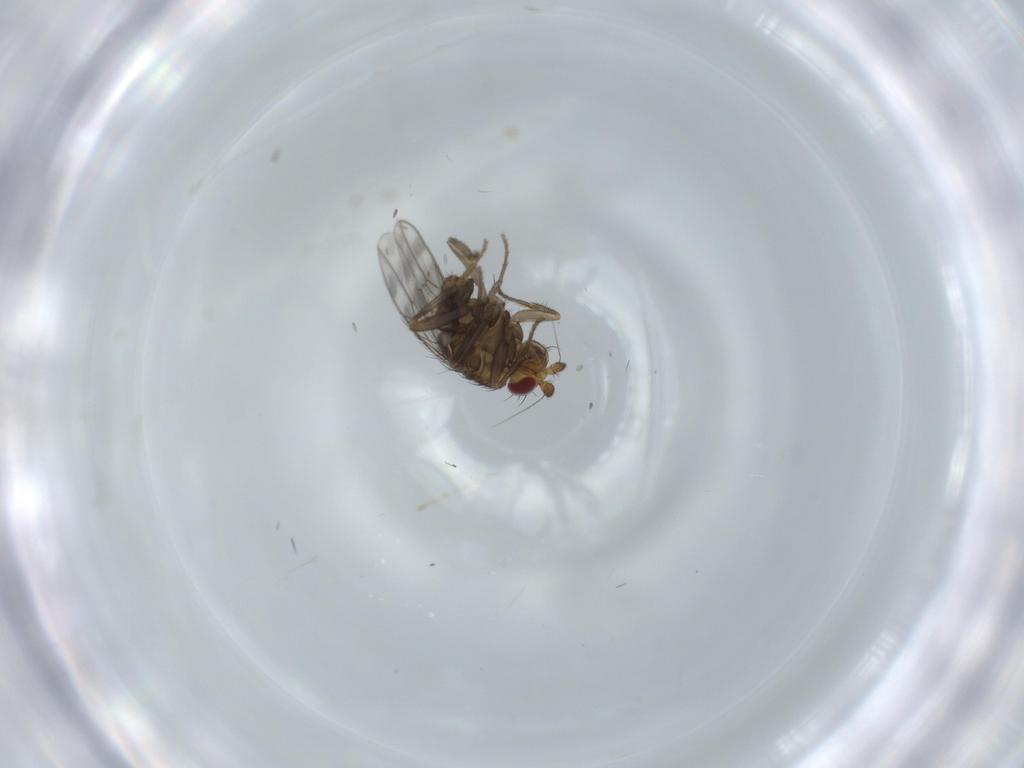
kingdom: Animalia
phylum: Arthropoda
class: Insecta
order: Diptera
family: Sphaeroceridae
